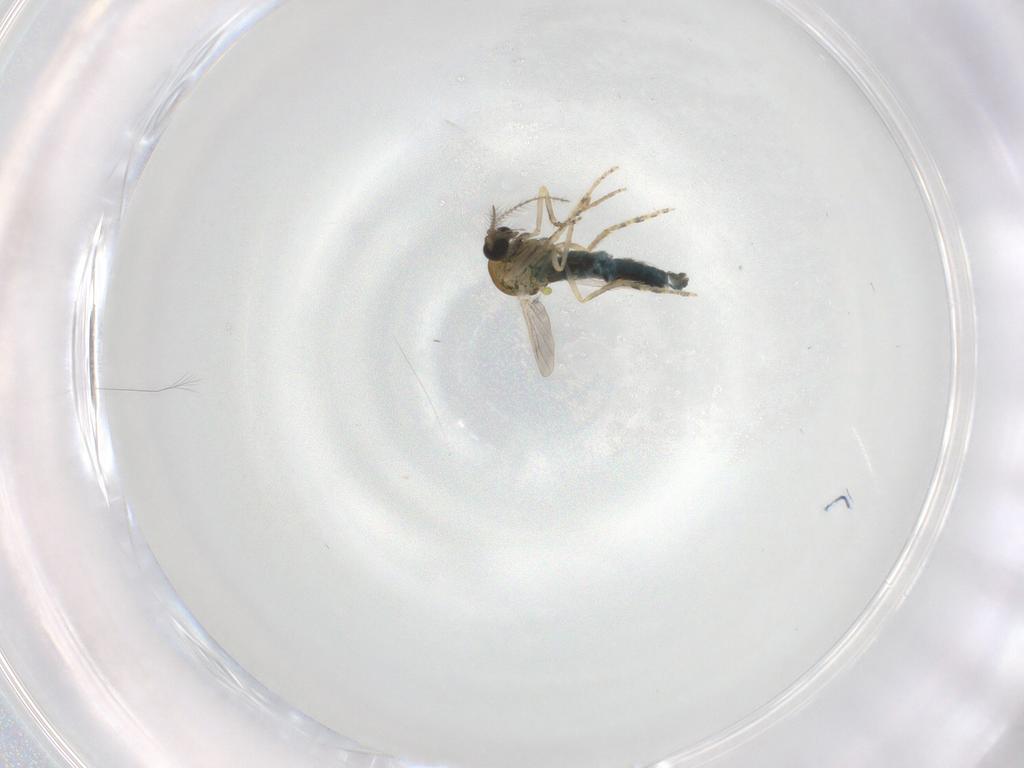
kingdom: Animalia
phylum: Arthropoda
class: Insecta
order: Diptera
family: Ceratopogonidae
